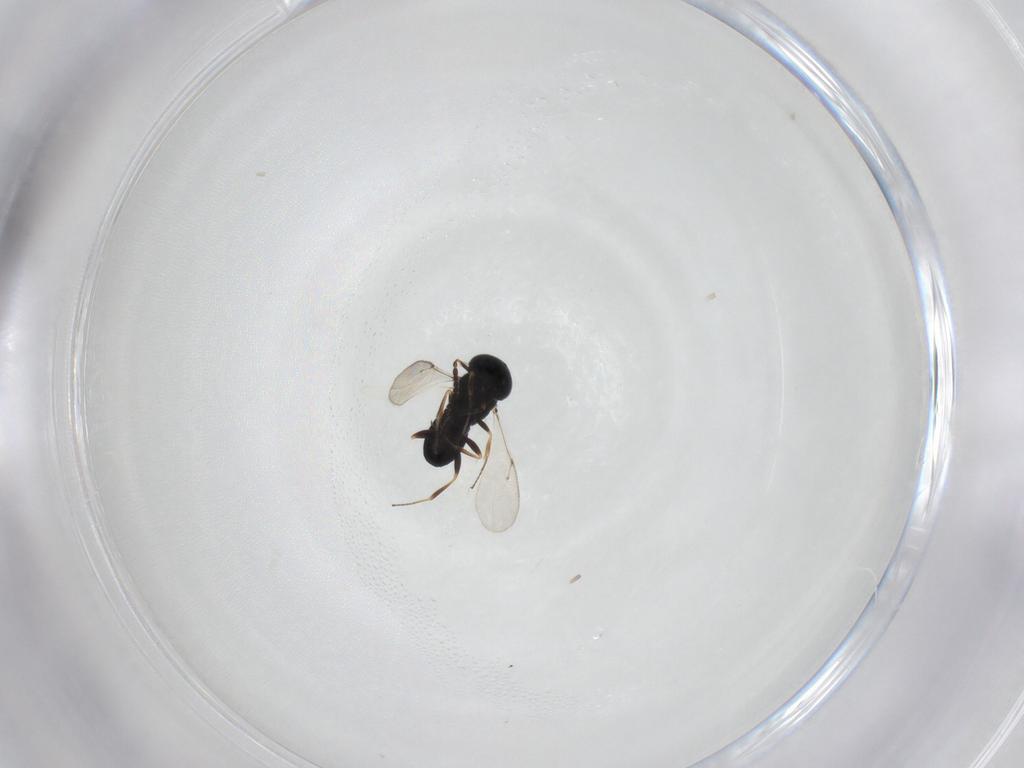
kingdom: Animalia
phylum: Arthropoda
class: Insecta
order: Hymenoptera
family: Scelionidae
